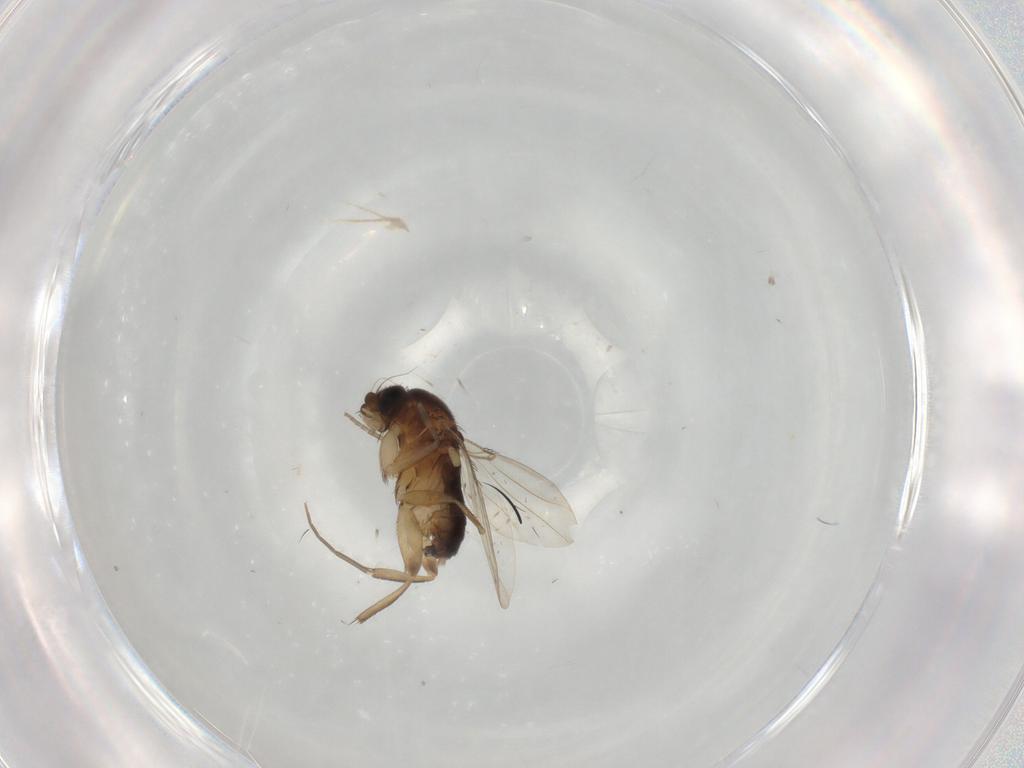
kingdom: Animalia
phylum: Arthropoda
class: Insecta
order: Diptera
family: Phoridae
